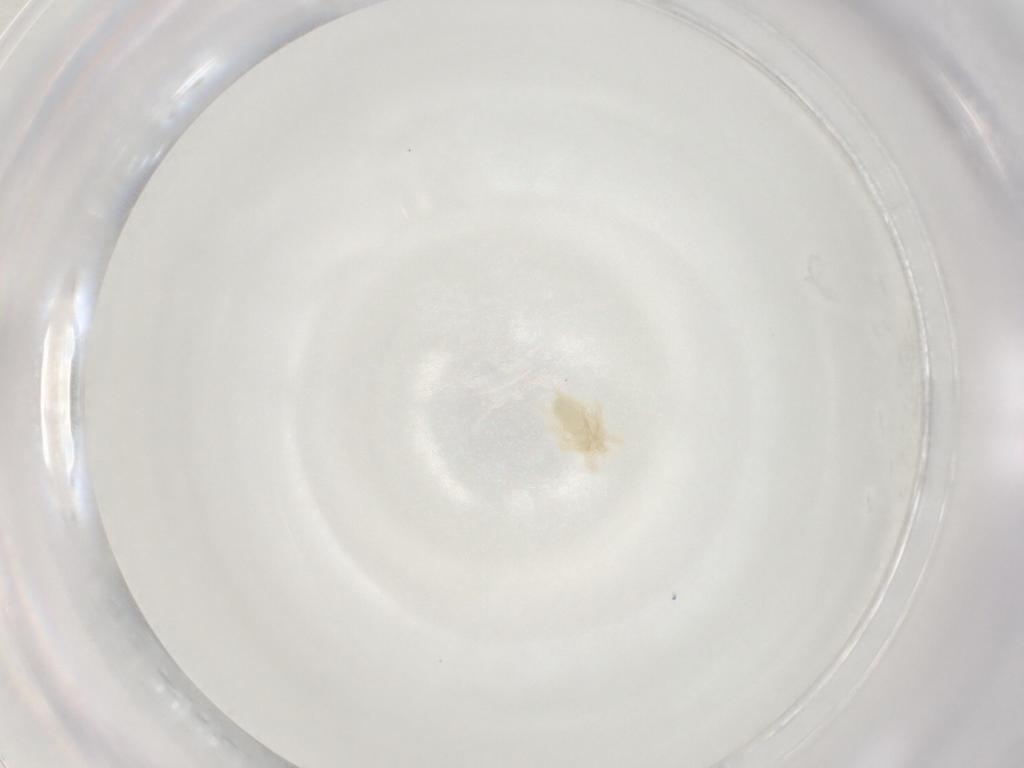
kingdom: Animalia
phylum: Arthropoda
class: Arachnida
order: Trombidiformes
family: Anystidae
